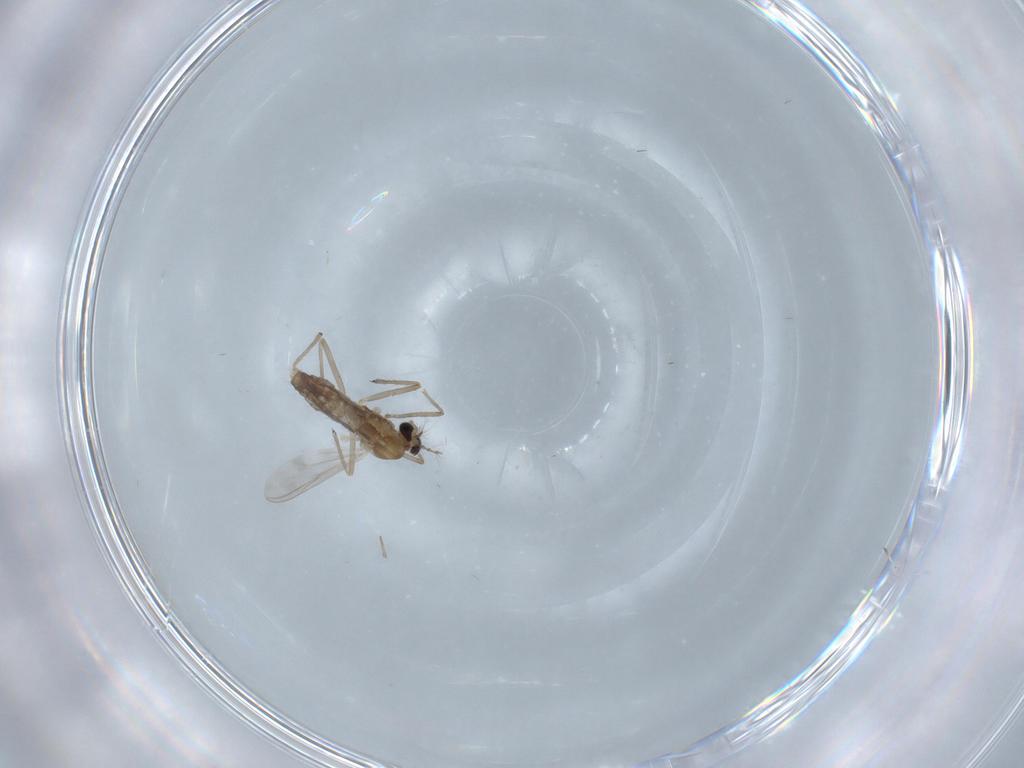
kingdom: Animalia
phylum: Arthropoda
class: Insecta
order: Diptera
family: Chironomidae
